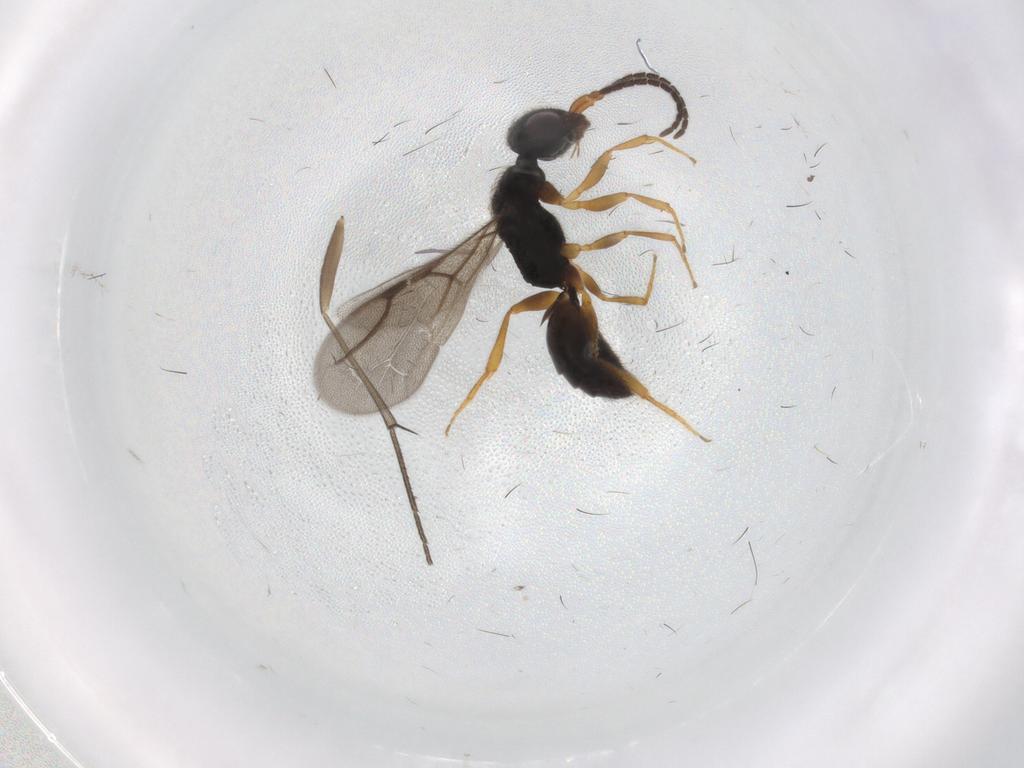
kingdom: Animalia
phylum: Arthropoda
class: Insecta
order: Hymenoptera
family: Bethylidae
